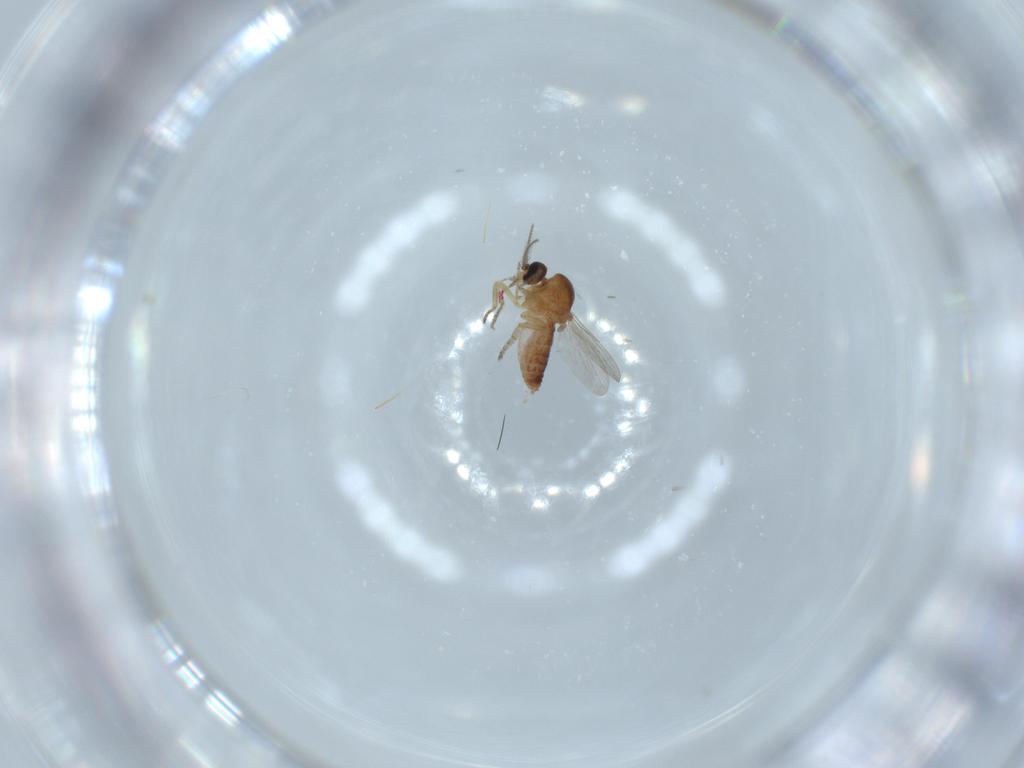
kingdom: Animalia
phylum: Arthropoda
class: Insecta
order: Diptera
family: Ceratopogonidae
